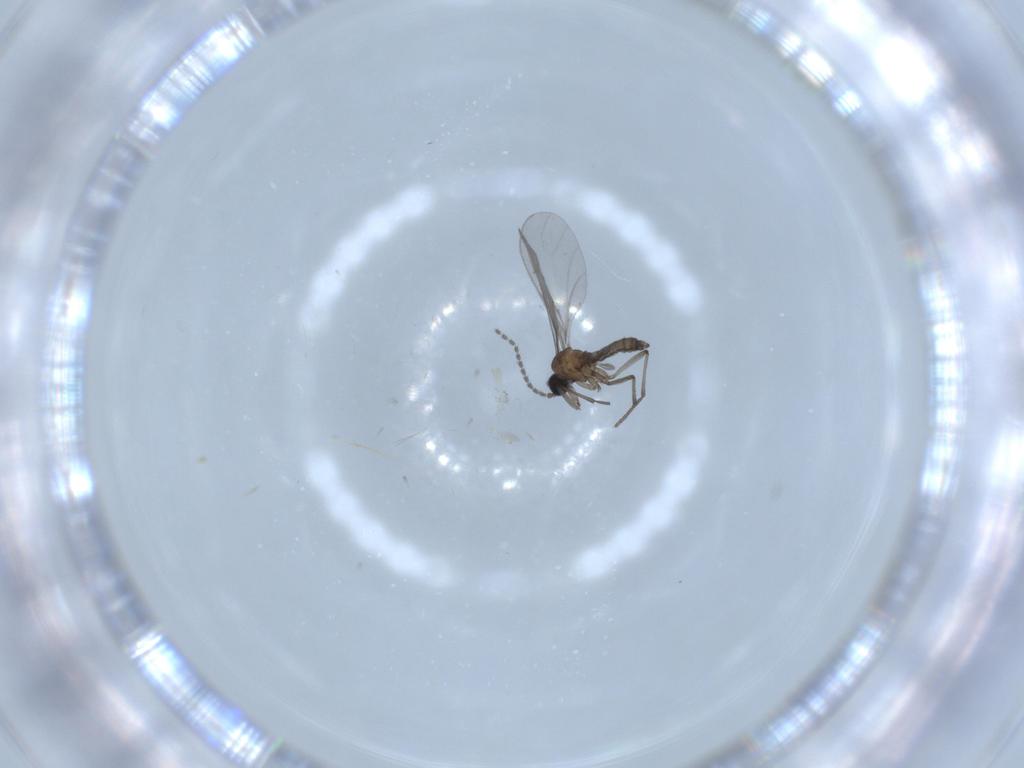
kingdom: Animalia
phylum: Arthropoda
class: Insecta
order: Diptera
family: Sciaridae
